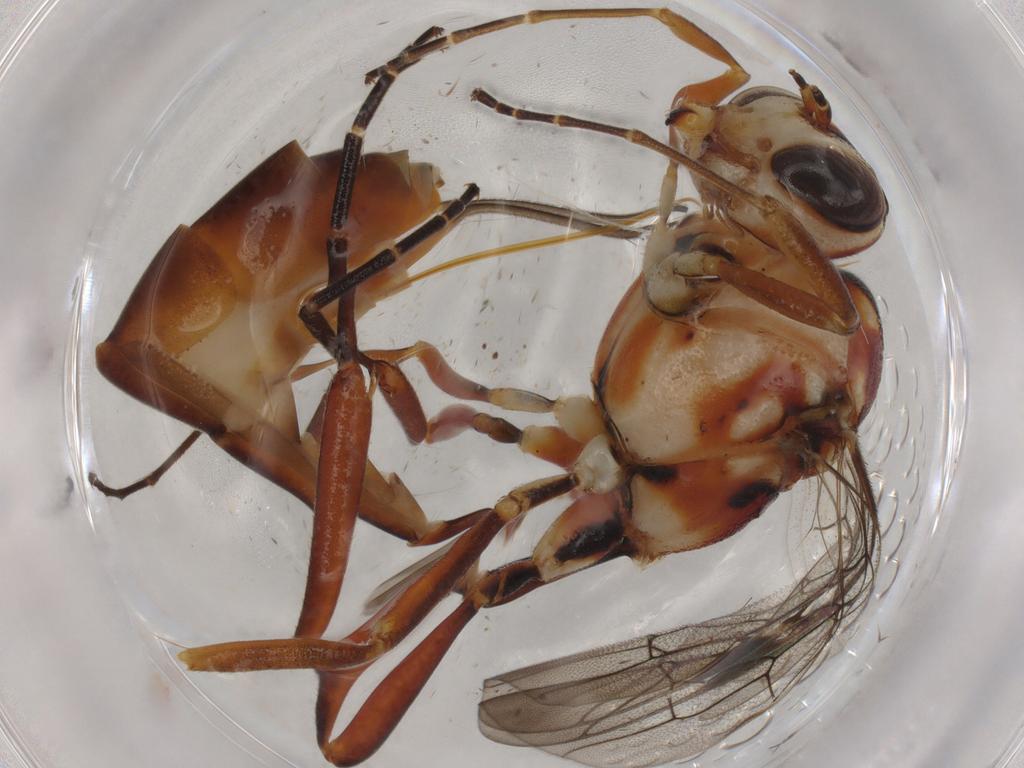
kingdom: Animalia
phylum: Arthropoda
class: Insecta
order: Hymenoptera
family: Ichneumonidae
